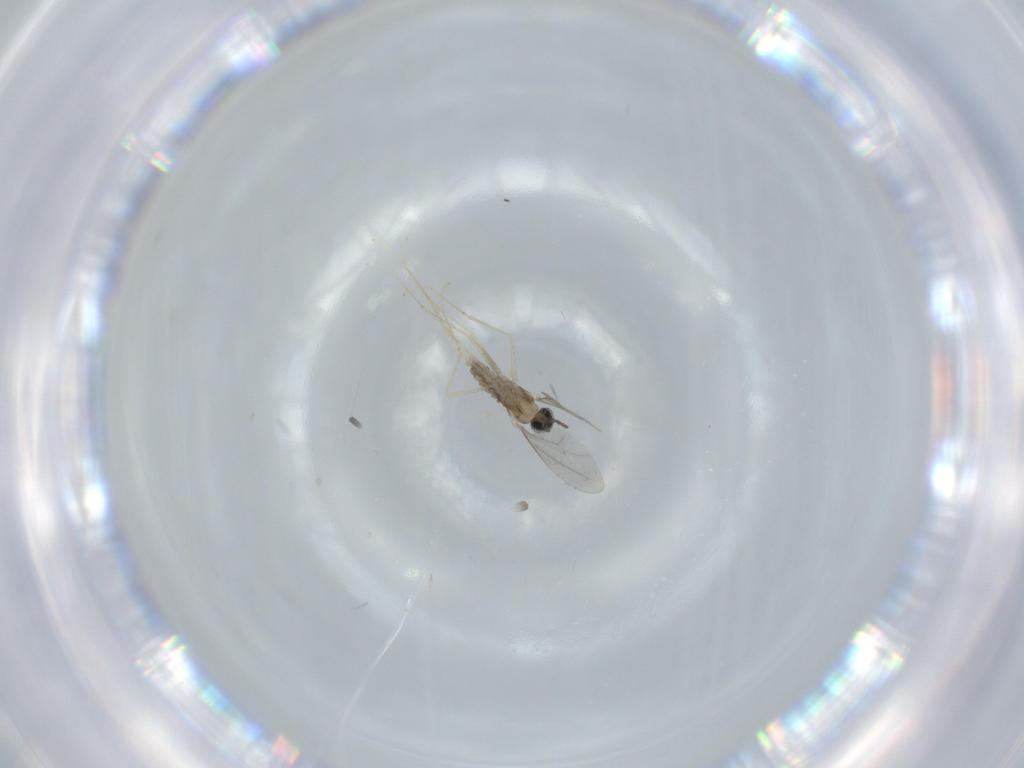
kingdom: Animalia
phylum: Arthropoda
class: Insecta
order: Diptera
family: Cecidomyiidae
